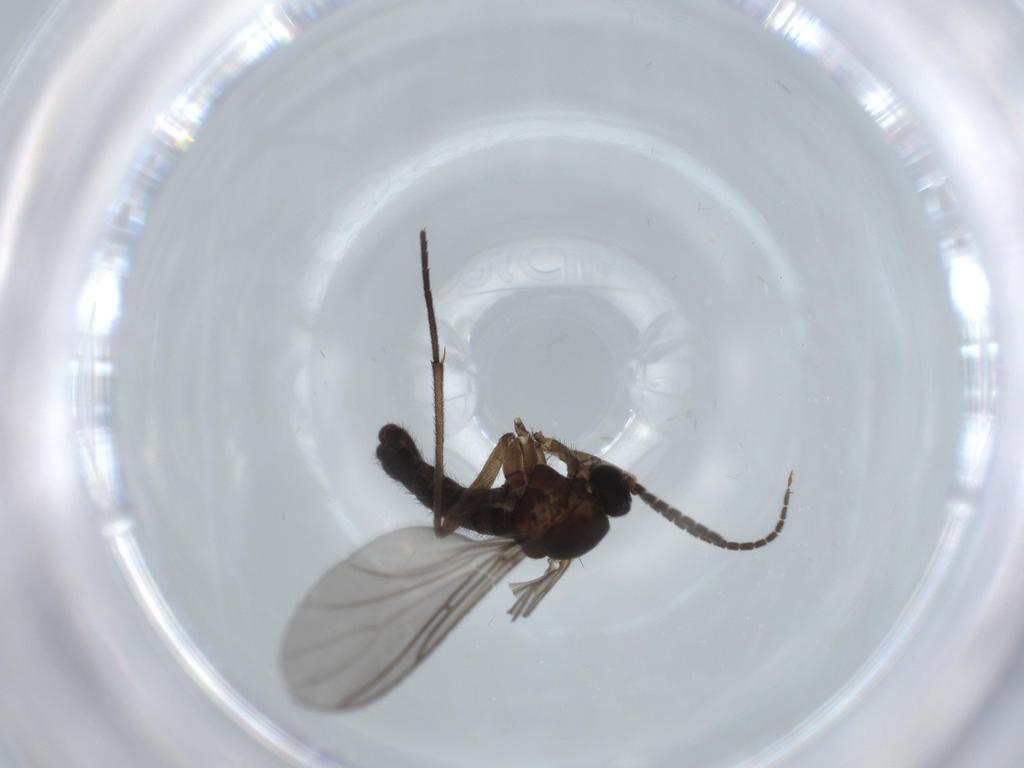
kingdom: Animalia
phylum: Arthropoda
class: Insecta
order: Diptera
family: Sciaridae
